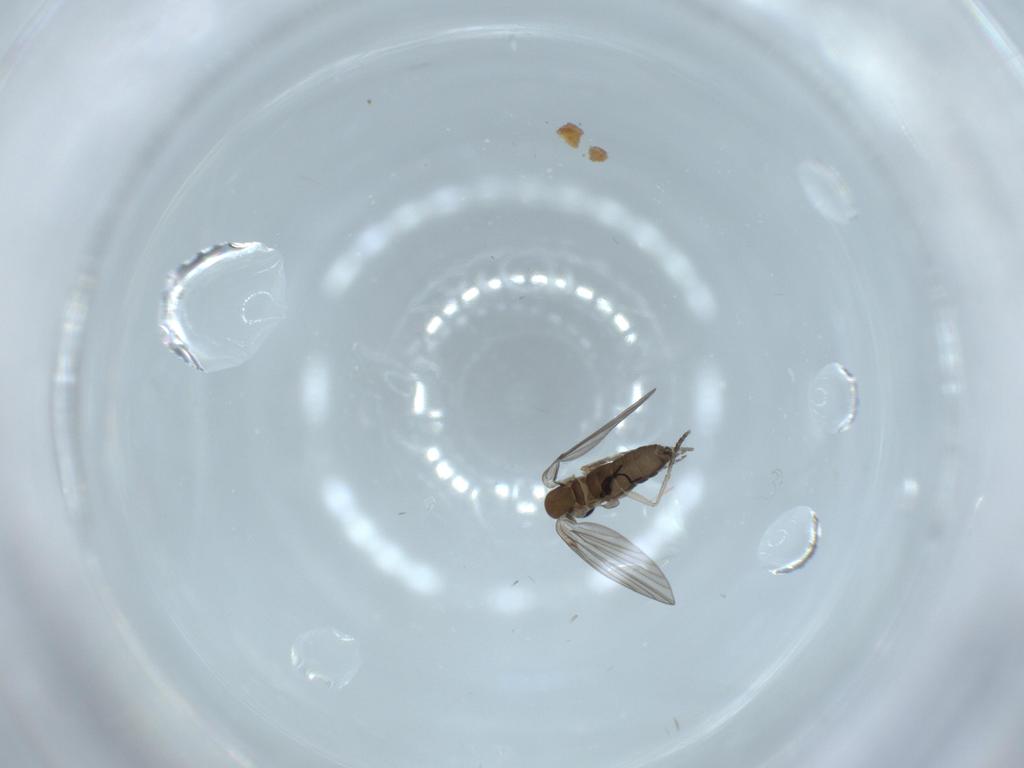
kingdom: Animalia
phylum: Arthropoda
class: Insecta
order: Diptera
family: Psychodidae
